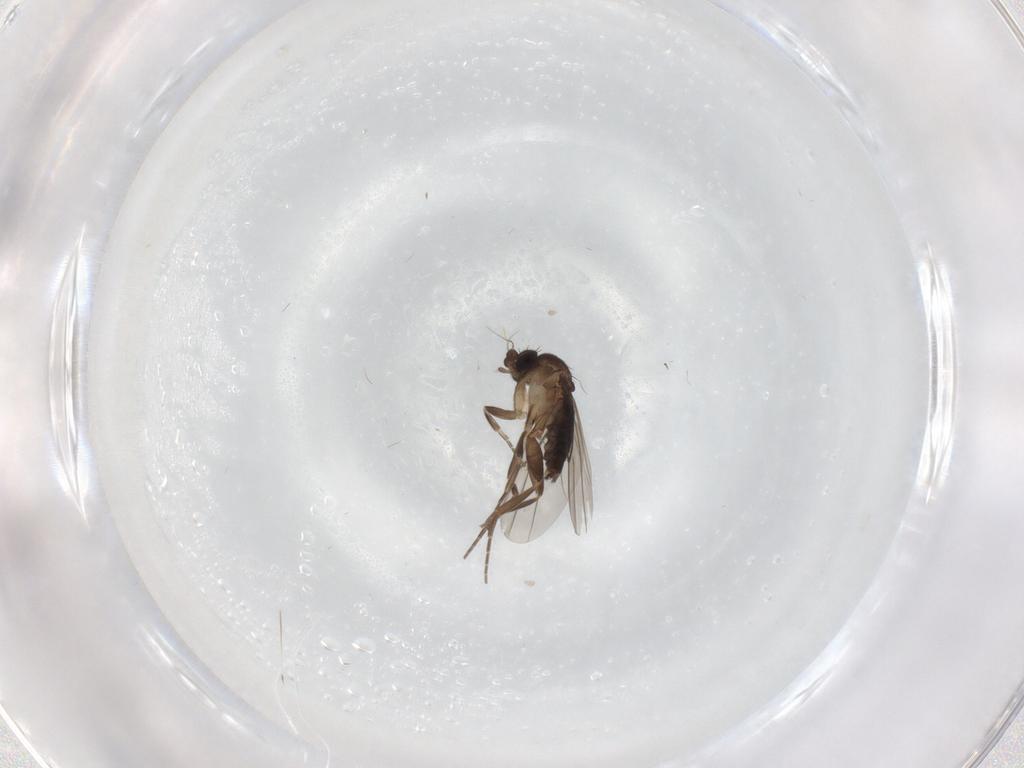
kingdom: Animalia
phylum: Arthropoda
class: Insecta
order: Diptera
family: Phoridae
